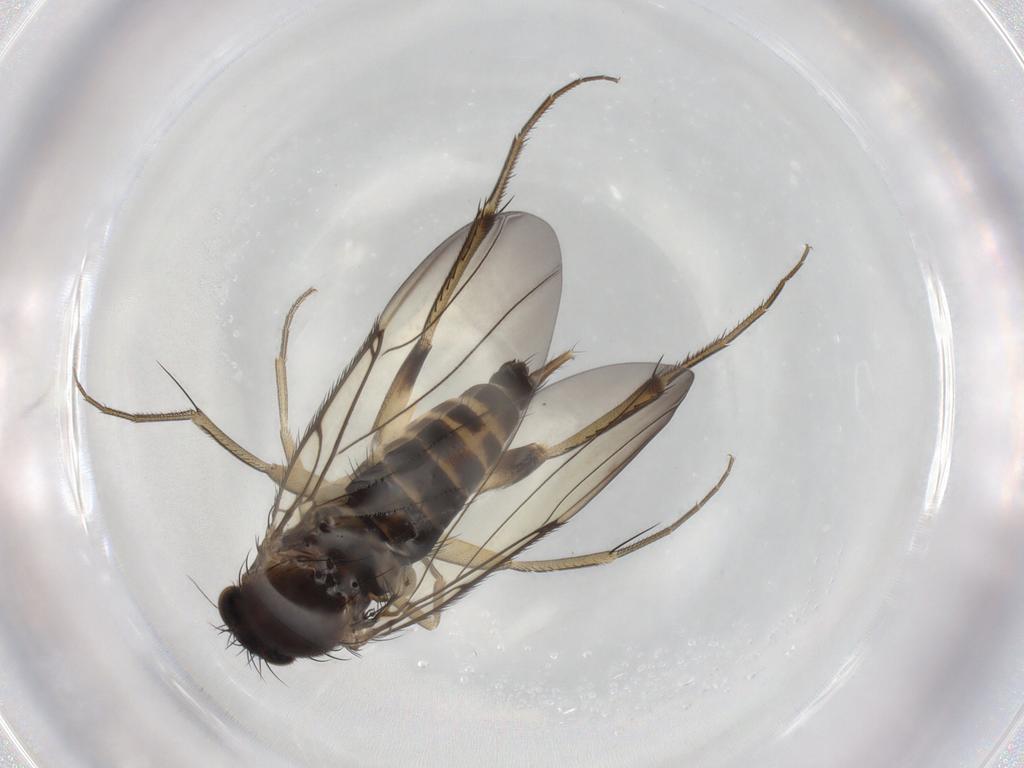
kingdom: Animalia
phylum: Arthropoda
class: Insecta
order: Diptera
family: Phoridae
